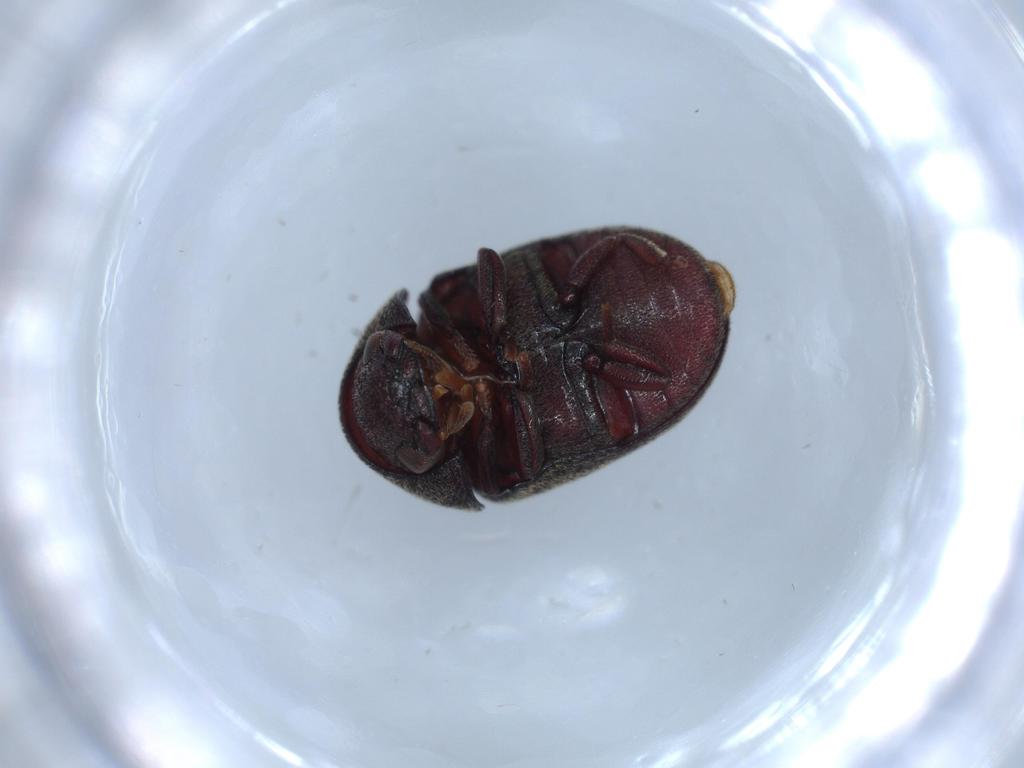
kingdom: Animalia
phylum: Arthropoda
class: Insecta
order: Coleoptera
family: Ptinidae
